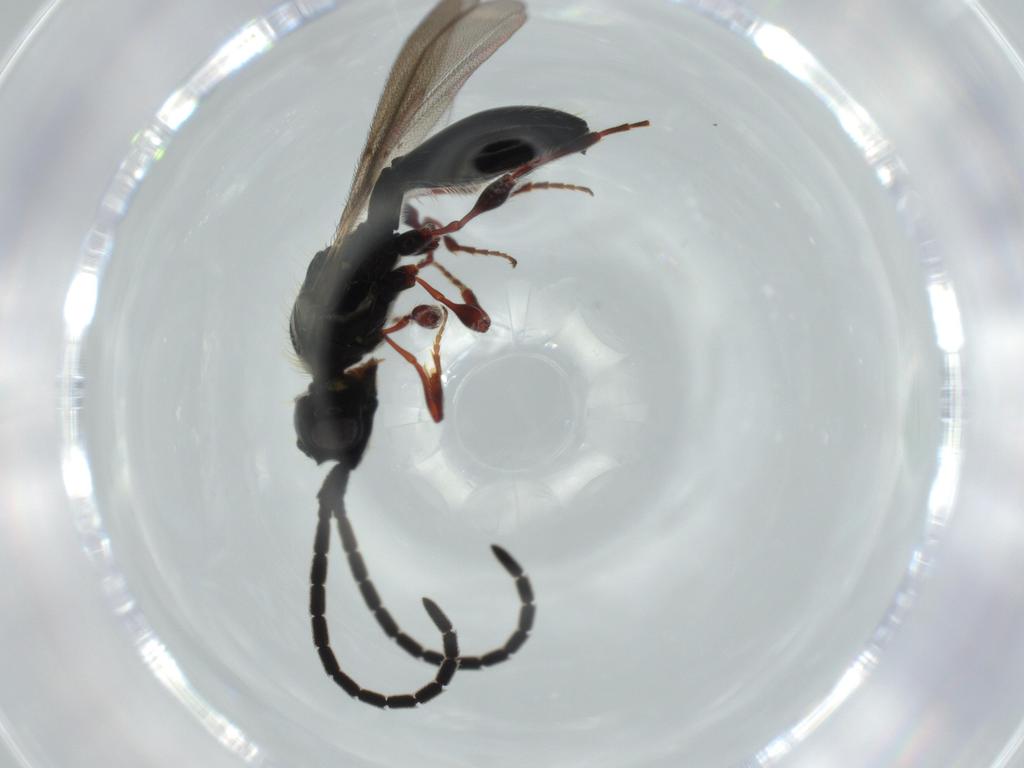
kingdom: Animalia
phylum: Arthropoda
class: Insecta
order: Hymenoptera
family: Diapriidae
